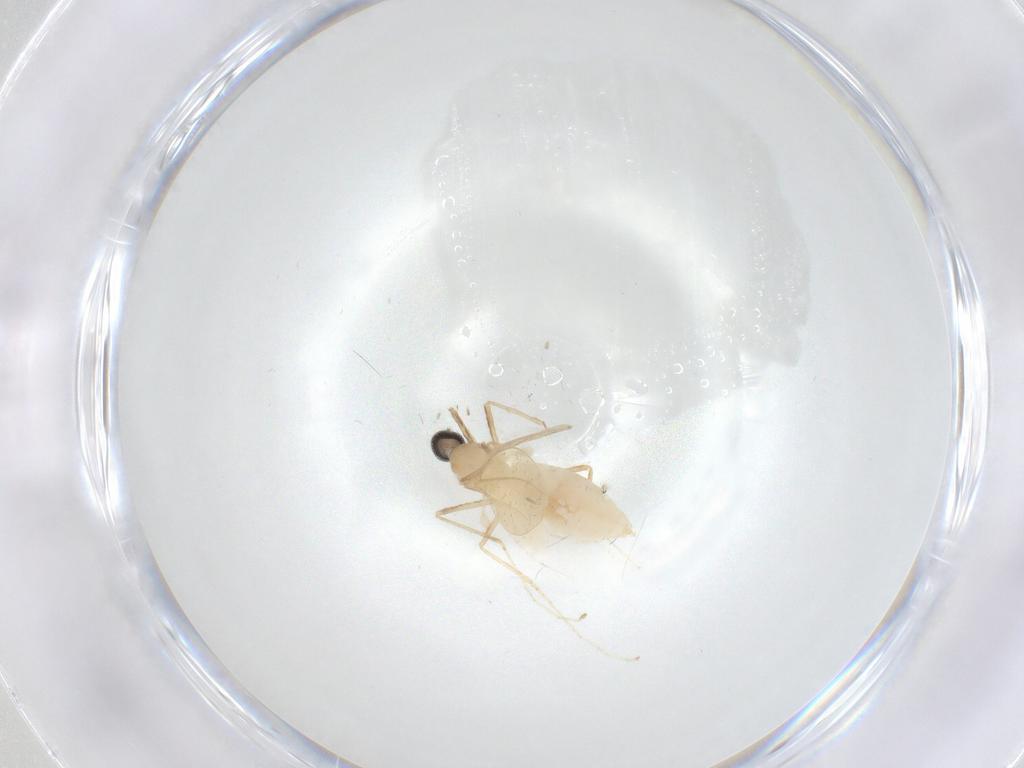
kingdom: Animalia
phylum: Arthropoda
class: Insecta
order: Diptera
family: Cecidomyiidae
